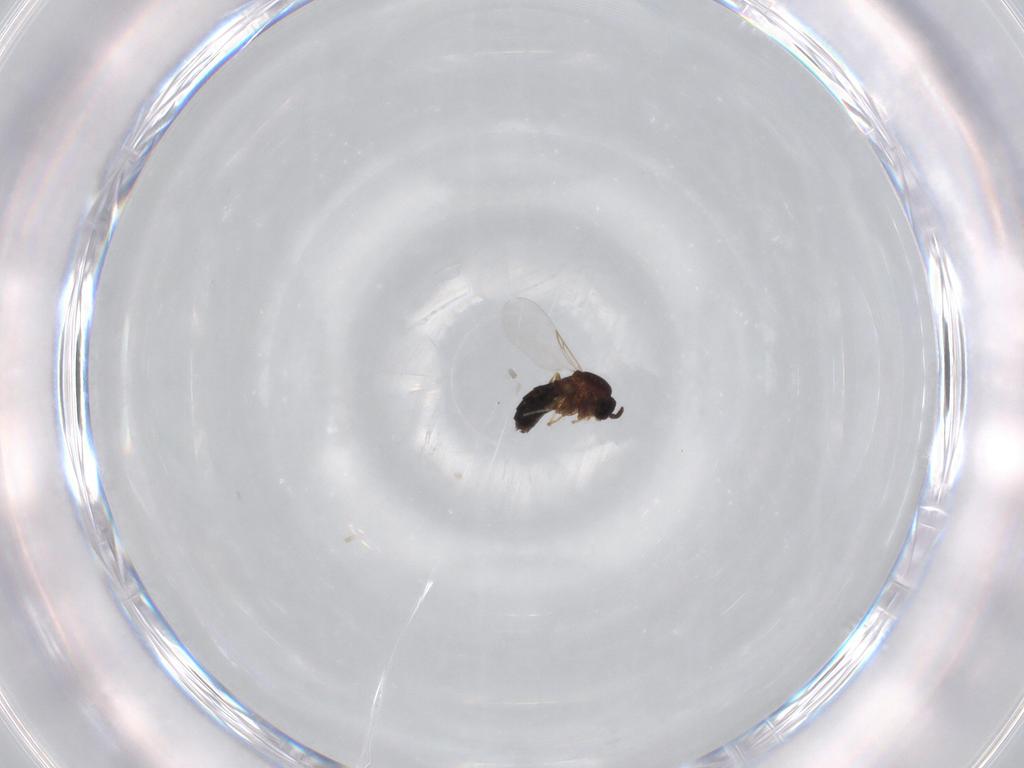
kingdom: Animalia
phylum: Arthropoda
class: Insecta
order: Diptera
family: Scatopsidae
